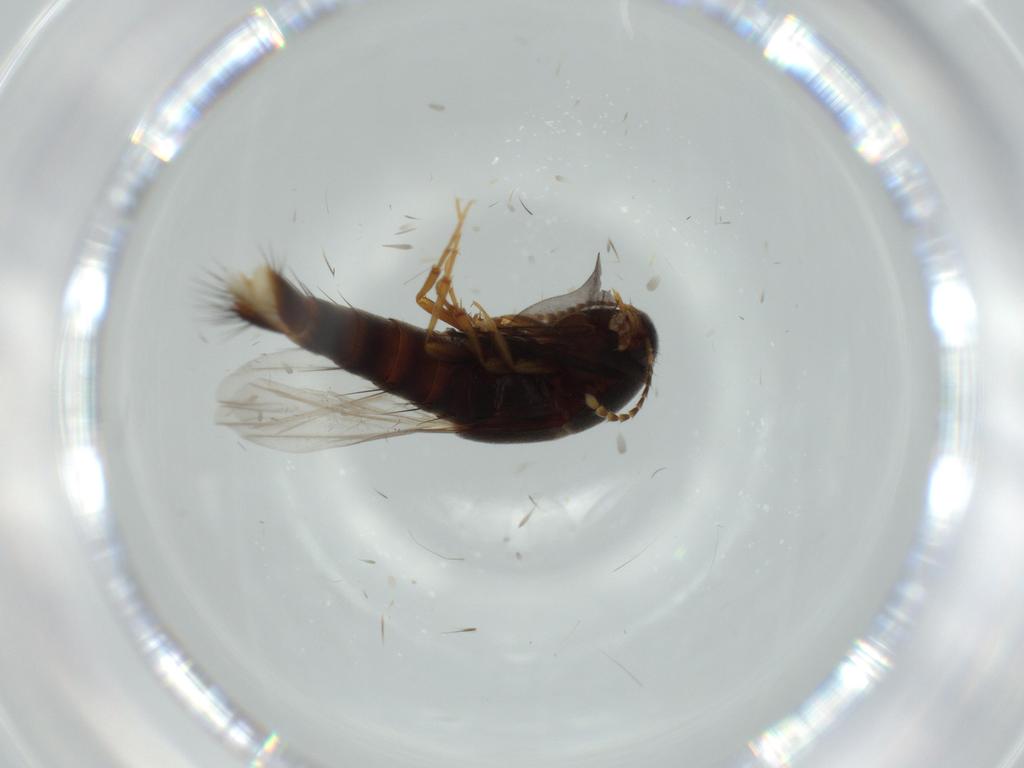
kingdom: Animalia
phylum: Arthropoda
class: Insecta
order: Coleoptera
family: Staphylinidae
